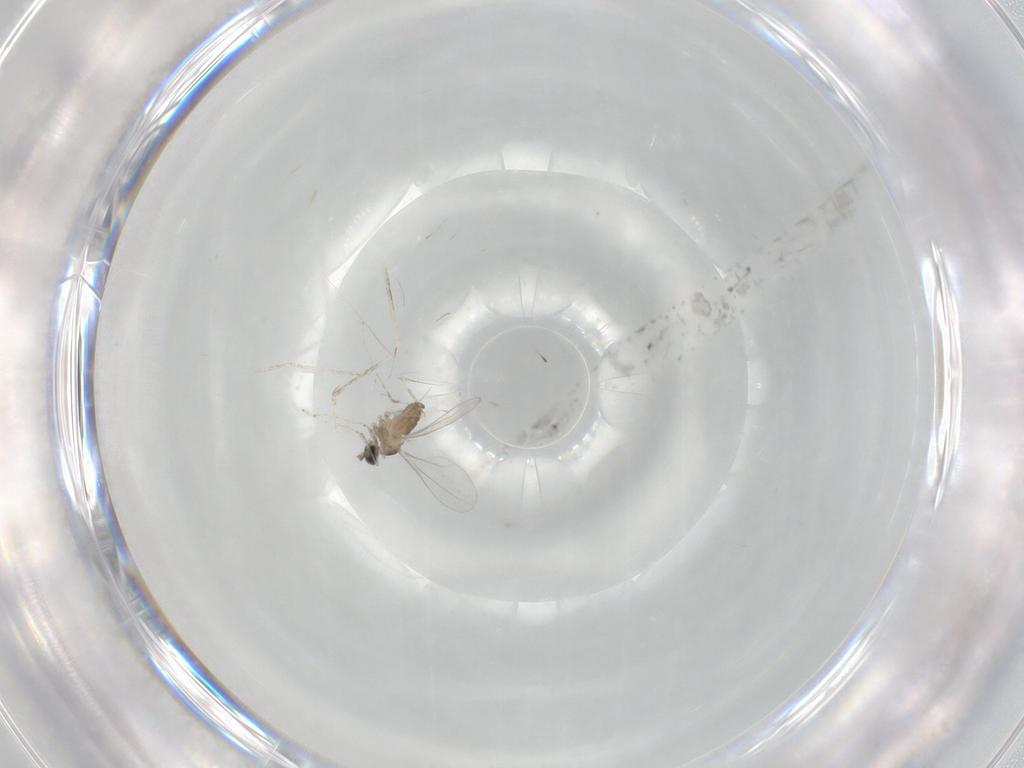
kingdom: Animalia
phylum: Arthropoda
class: Insecta
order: Diptera
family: Cecidomyiidae
